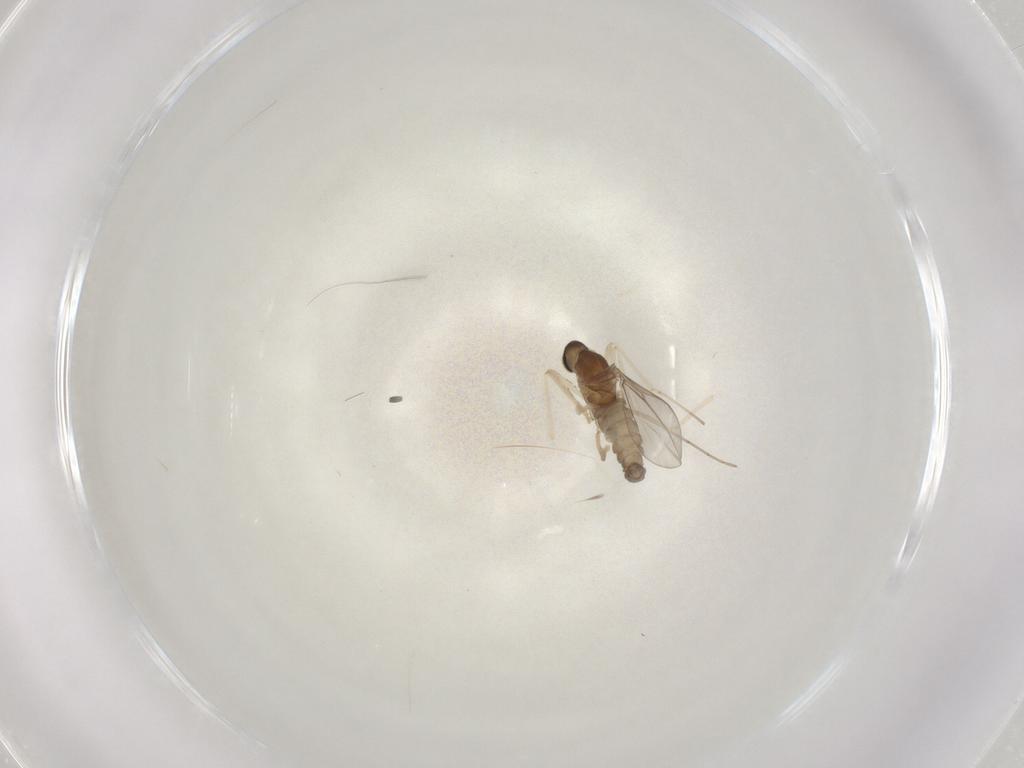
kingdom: Animalia
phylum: Arthropoda
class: Insecta
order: Diptera
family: Cecidomyiidae
